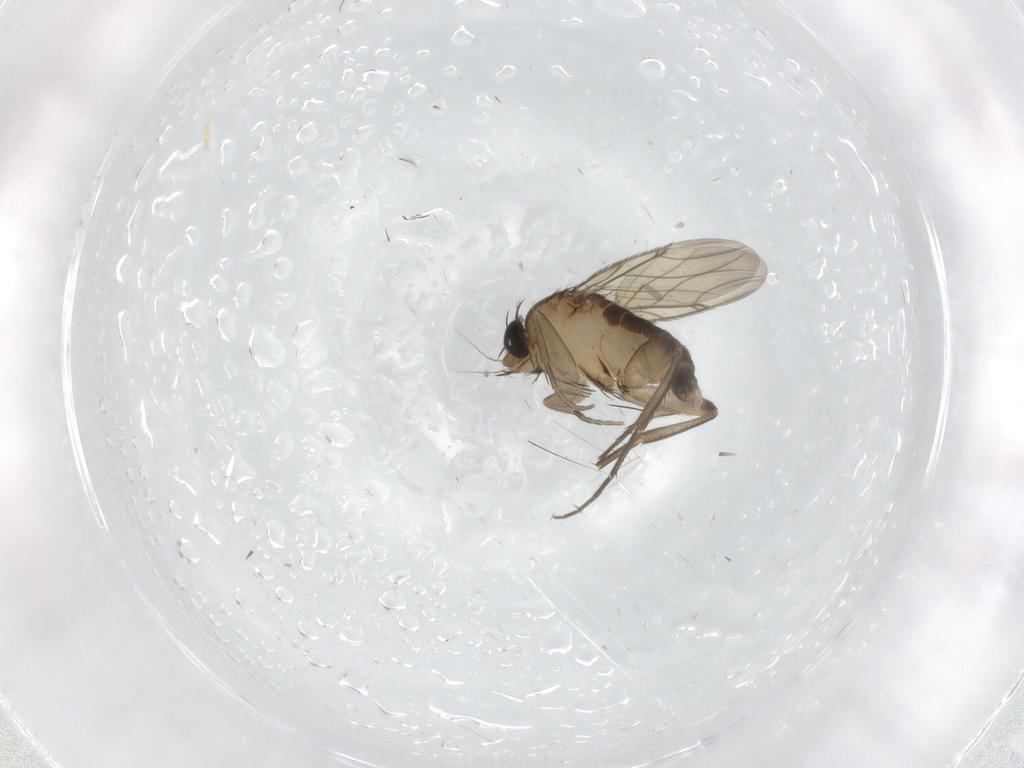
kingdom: Animalia
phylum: Arthropoda
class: Insecta
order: Diptera
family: Phoridae
